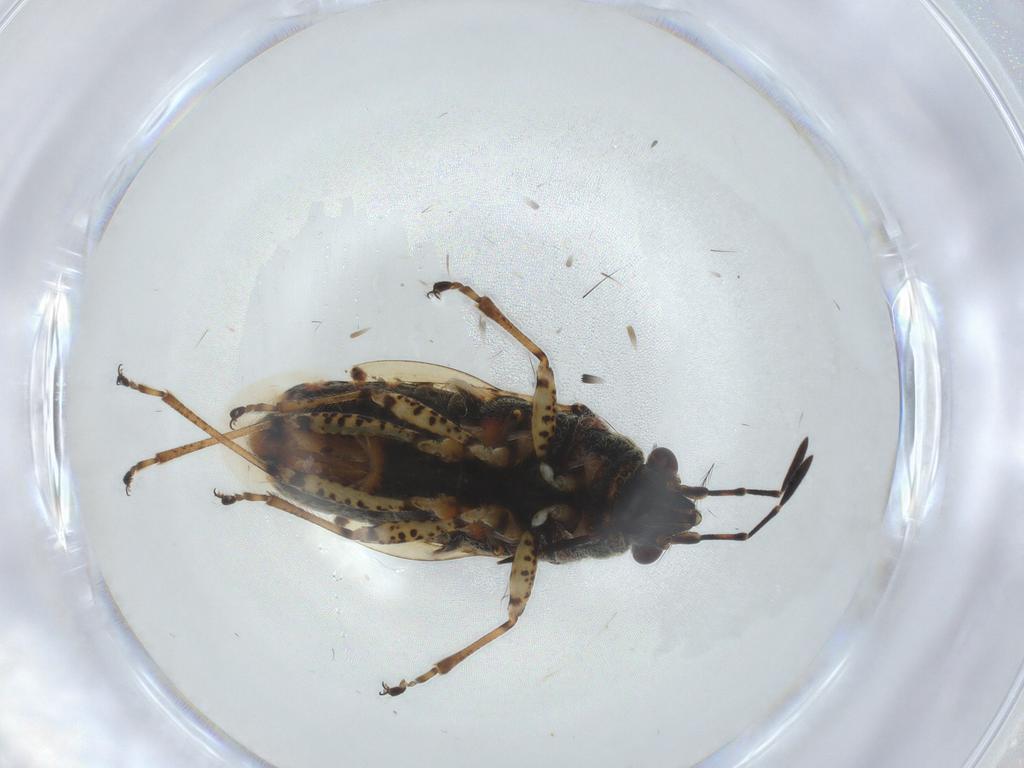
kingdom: Animalia
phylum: Arthropoda
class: Insecta
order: Hemiptera
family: Lygaeidae
